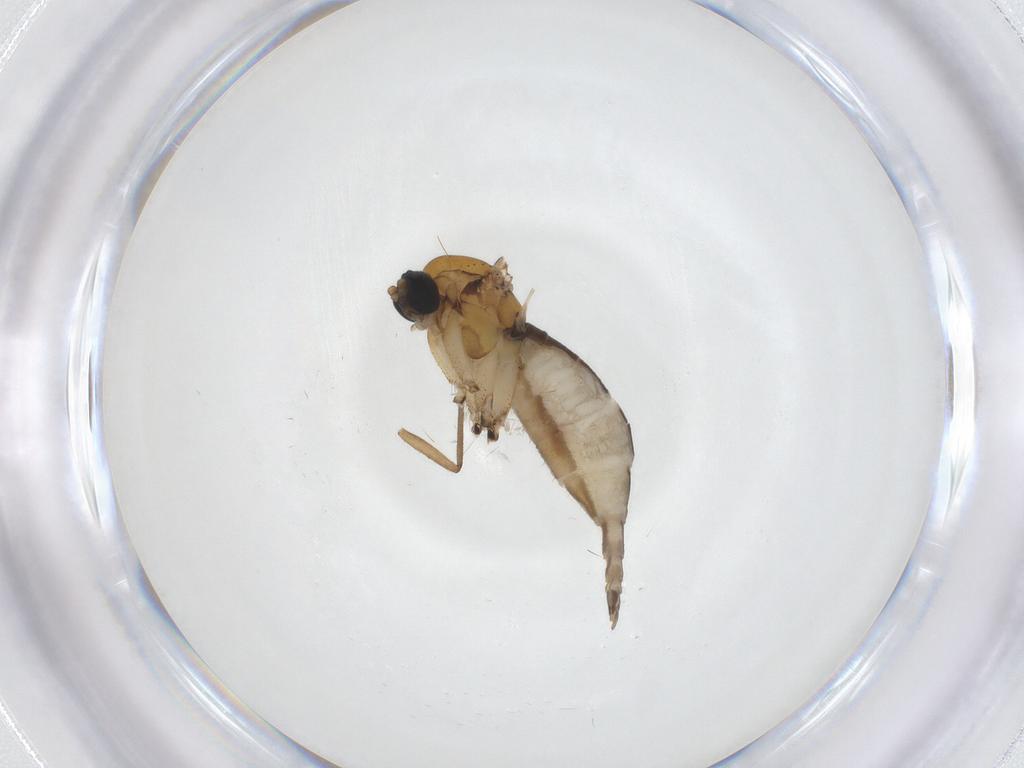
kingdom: Animalia
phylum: Arthropoda
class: Insecta
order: Diptera
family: Sciaridae
